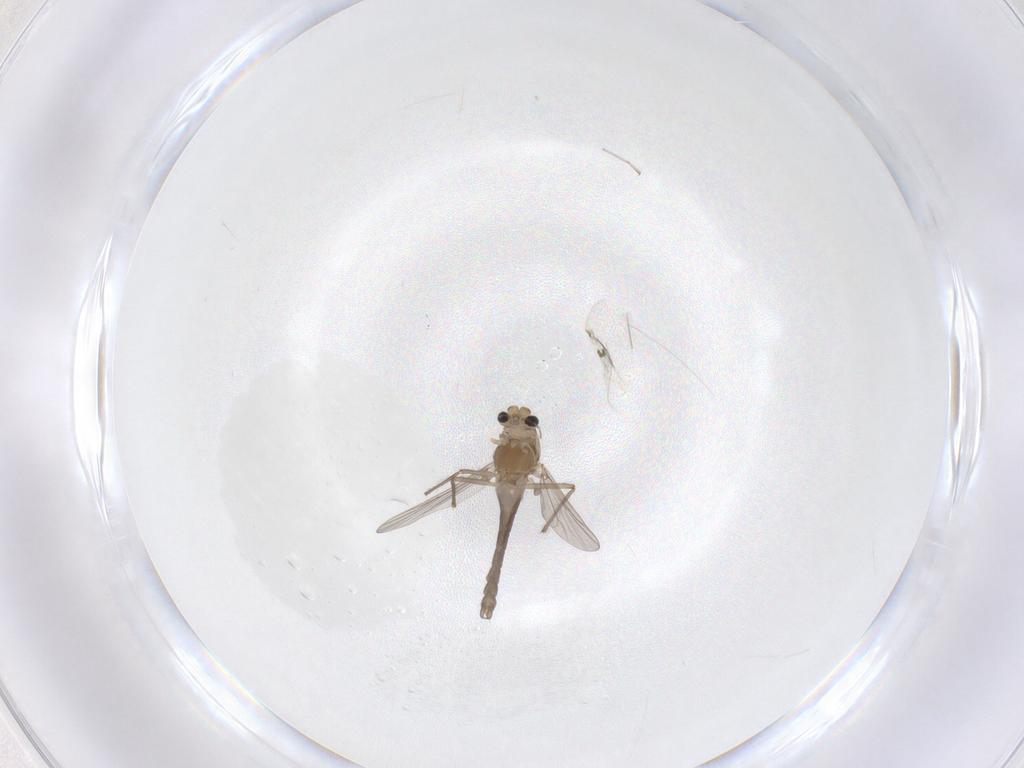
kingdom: Animalia
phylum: Arthropoda
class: Insecta
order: Diptera
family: Chironomidae
